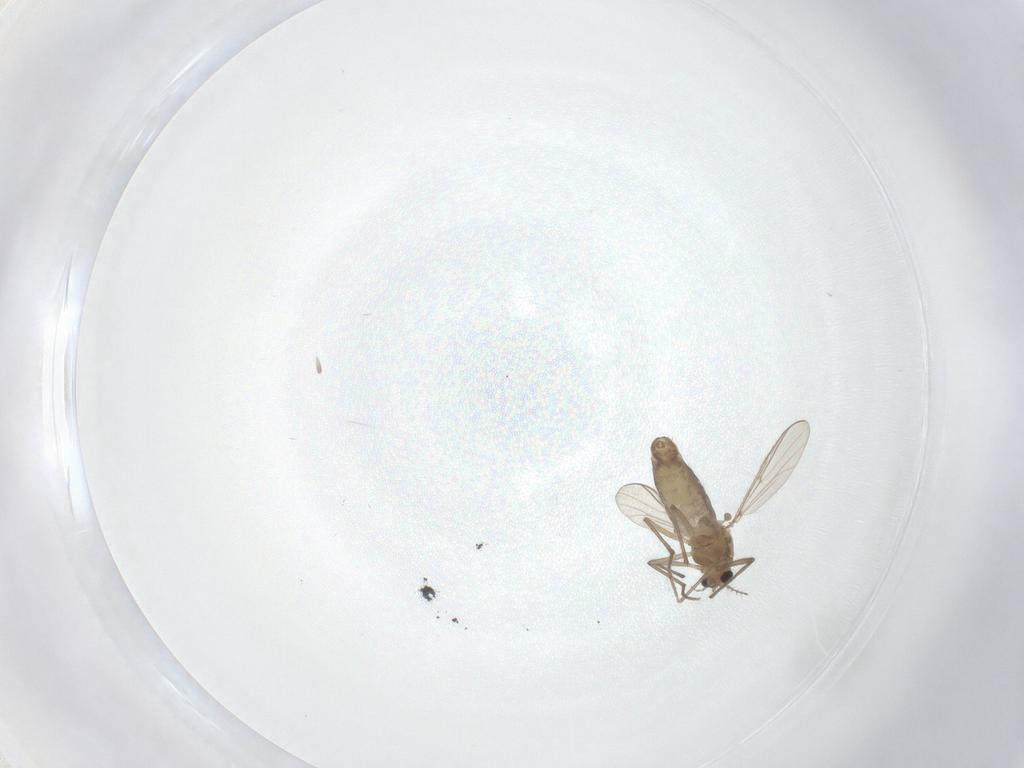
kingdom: Animalia
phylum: Arthropoda
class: Insecta
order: Diptera
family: Chironomidae
